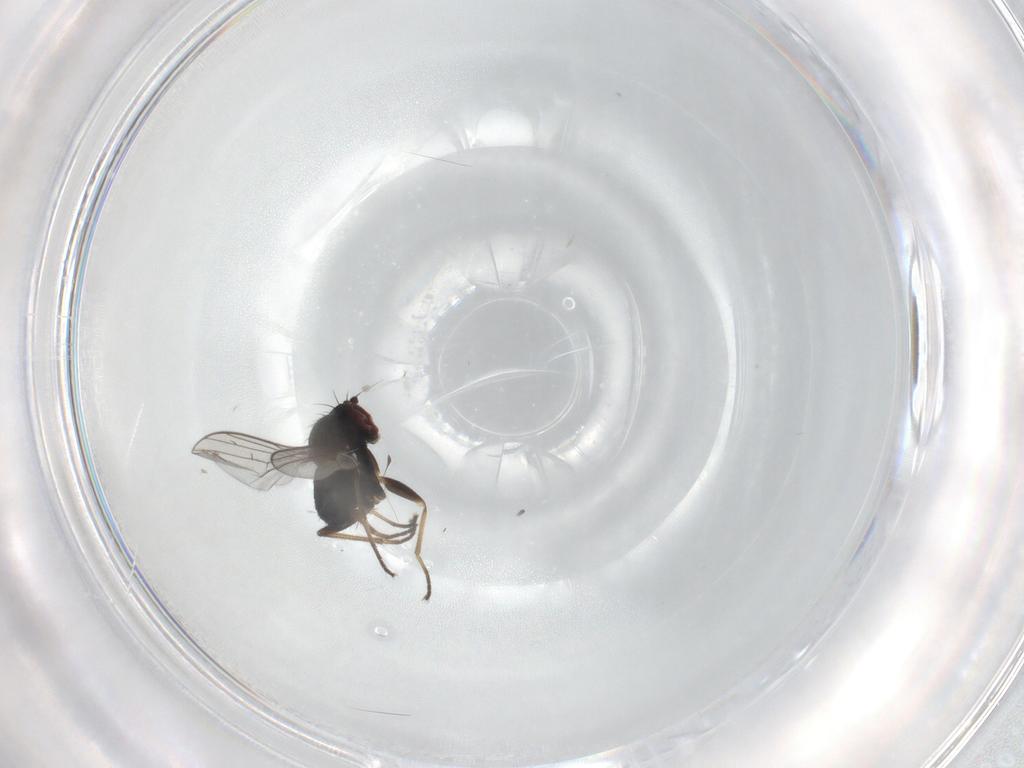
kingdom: Animalia
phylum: Arthropoda
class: Insecta
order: Diptera
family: Dolichopodidae
